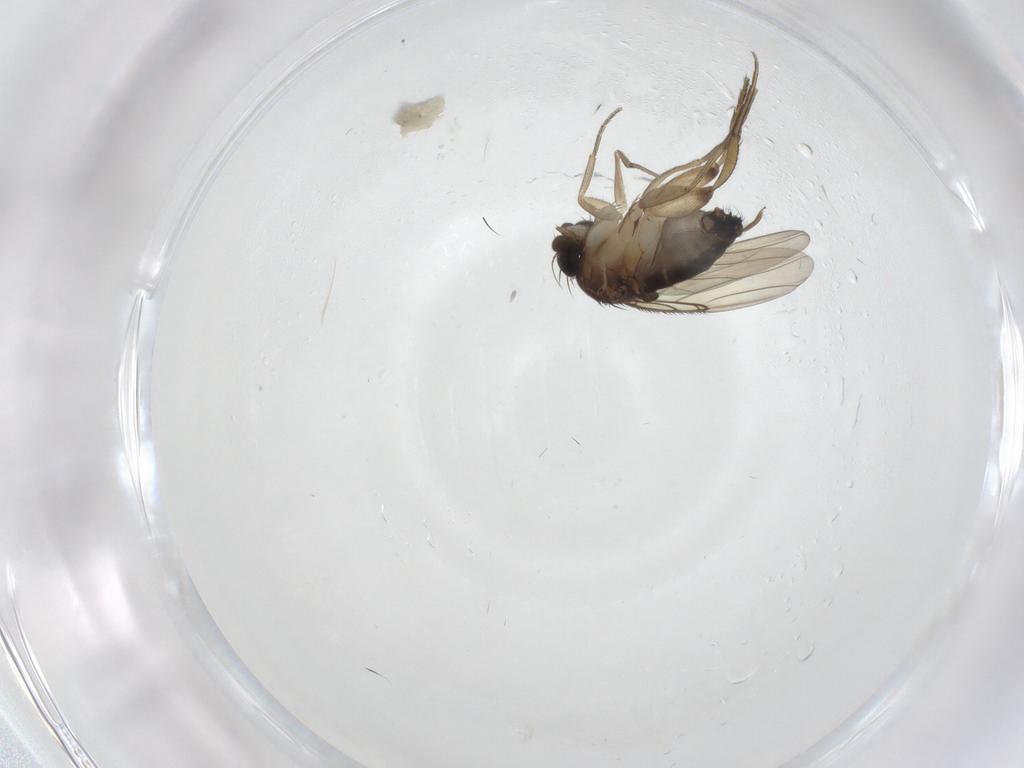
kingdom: Animalia
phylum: Arthropoda
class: Insecta
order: Diptera
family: Phoridae
